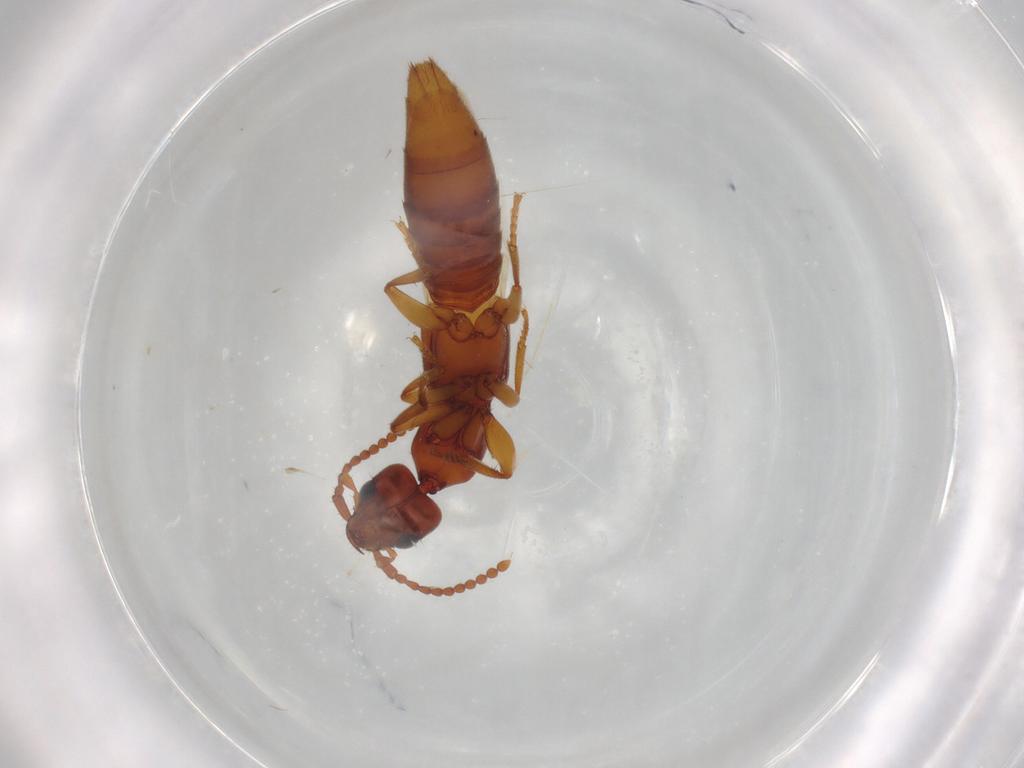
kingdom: Animalia
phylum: Arthropoda
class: Insecta
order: Coleoptera
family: Staphylinidae
